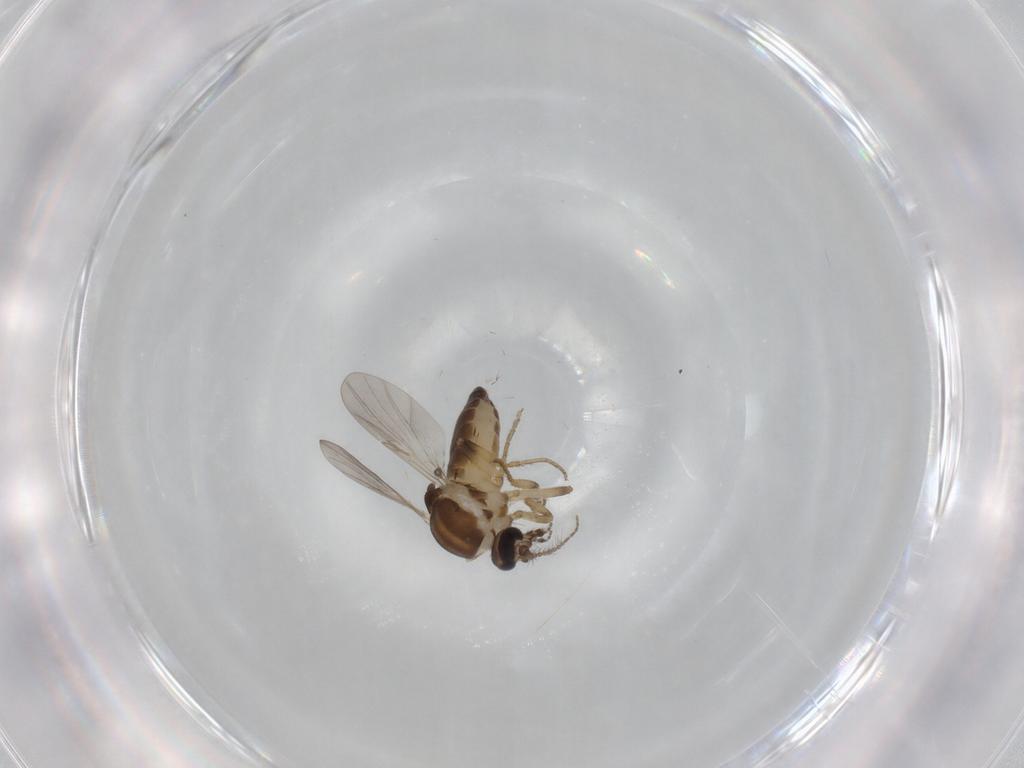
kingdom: Animalia
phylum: Arthropoda
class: Insecta
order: Diptera
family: Ceratopogonidae
